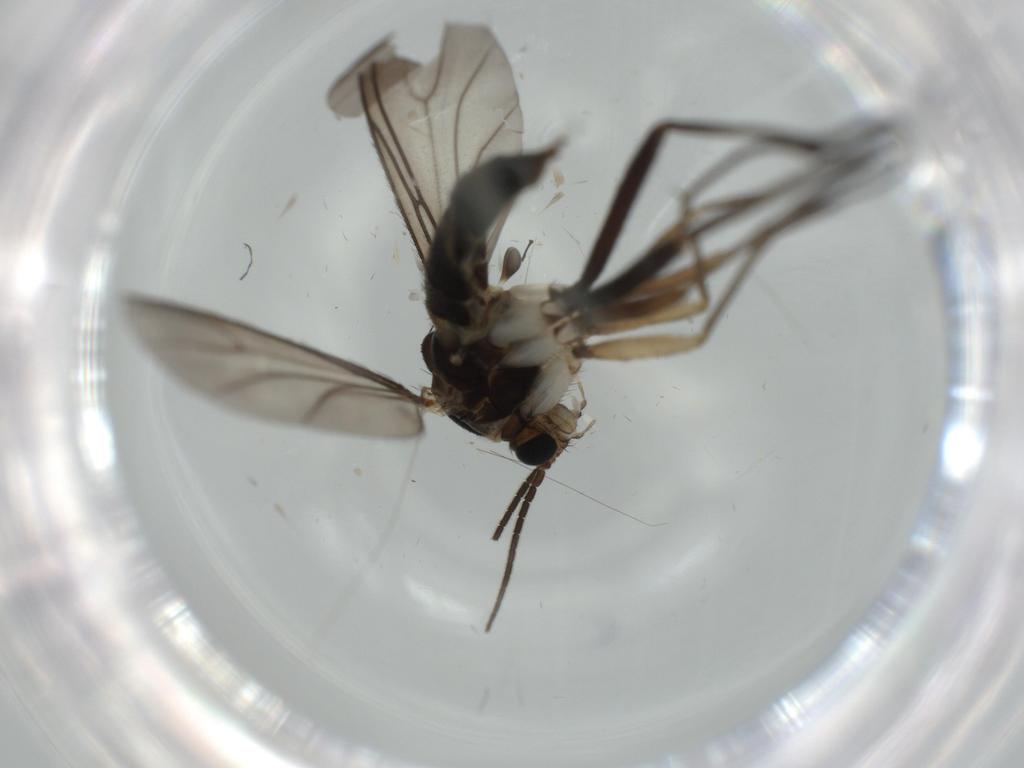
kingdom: Animalia
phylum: Arthropoda
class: Insecta
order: Diptera
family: Sciaridae
